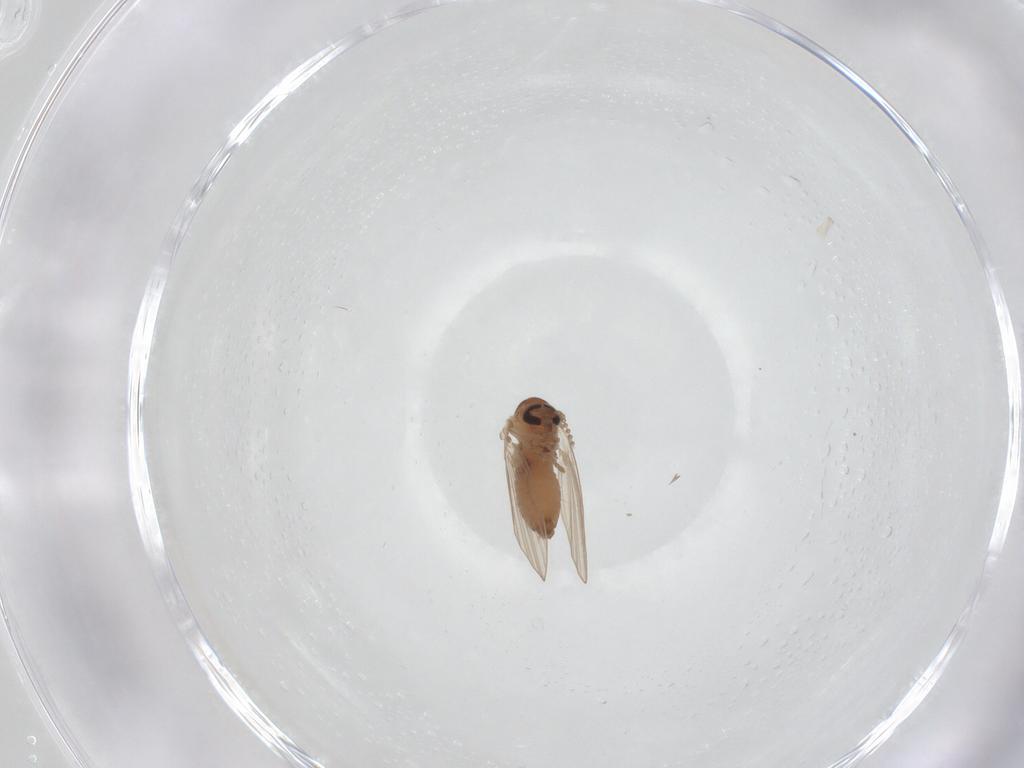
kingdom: Animalia
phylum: Arthropoda
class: Insecta
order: Diptera
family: Psychodidae
